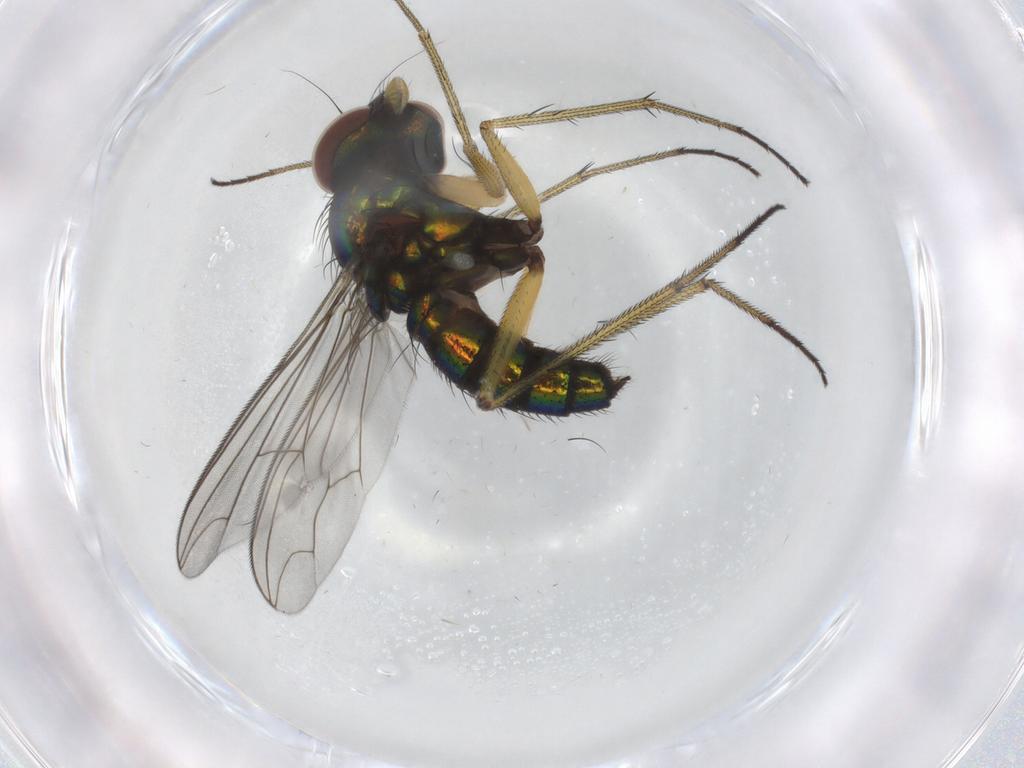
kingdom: Animalia
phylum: Arthropoda
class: Insecta
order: Diptera
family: Dolichopodidae
